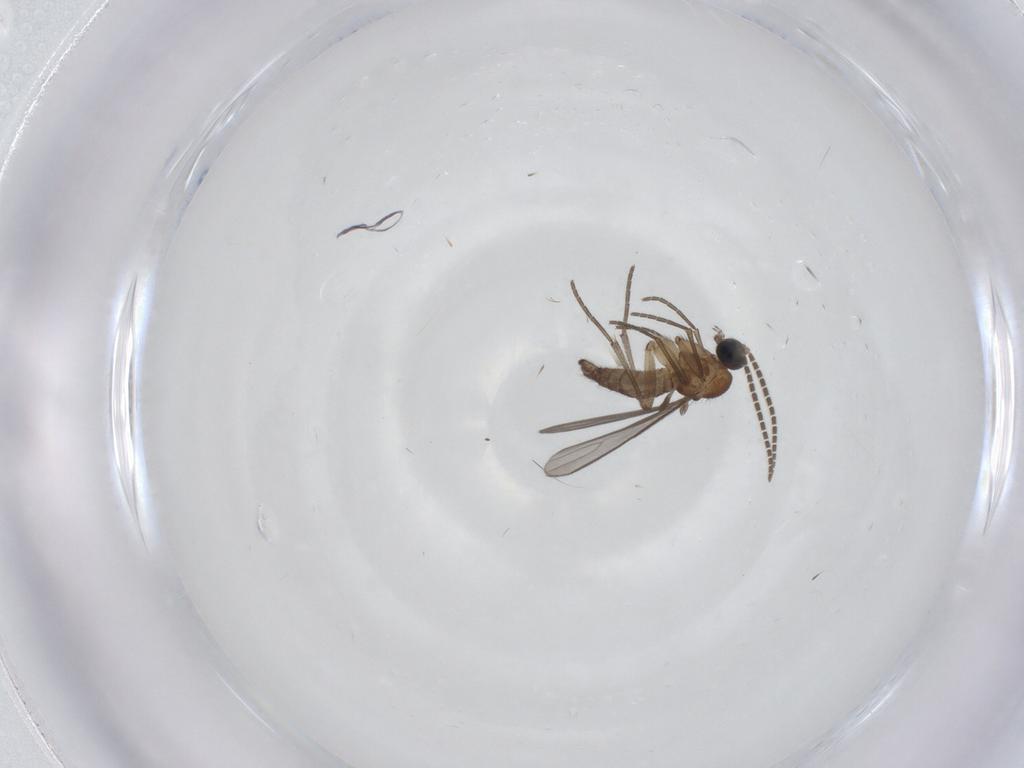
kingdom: Animalia
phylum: Arthropoda
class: Insecta
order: Diptera
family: Sciaridae
